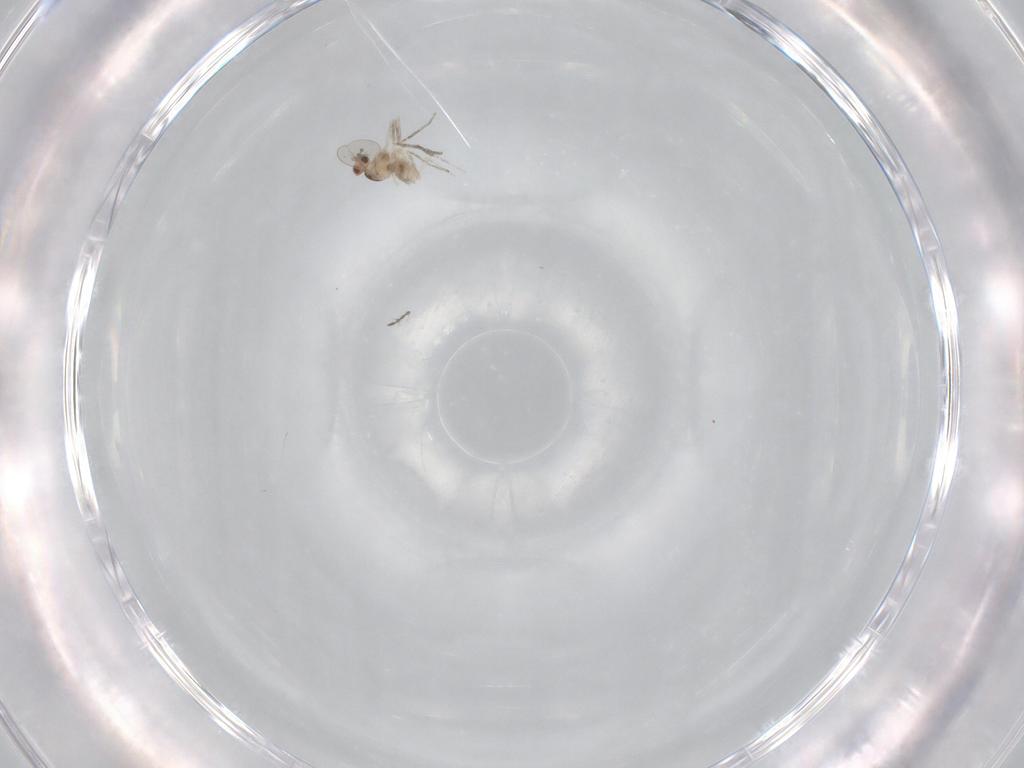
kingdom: Animalia
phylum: Arthropoda
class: Insecta
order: Diptera
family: Cecidomyiidae
